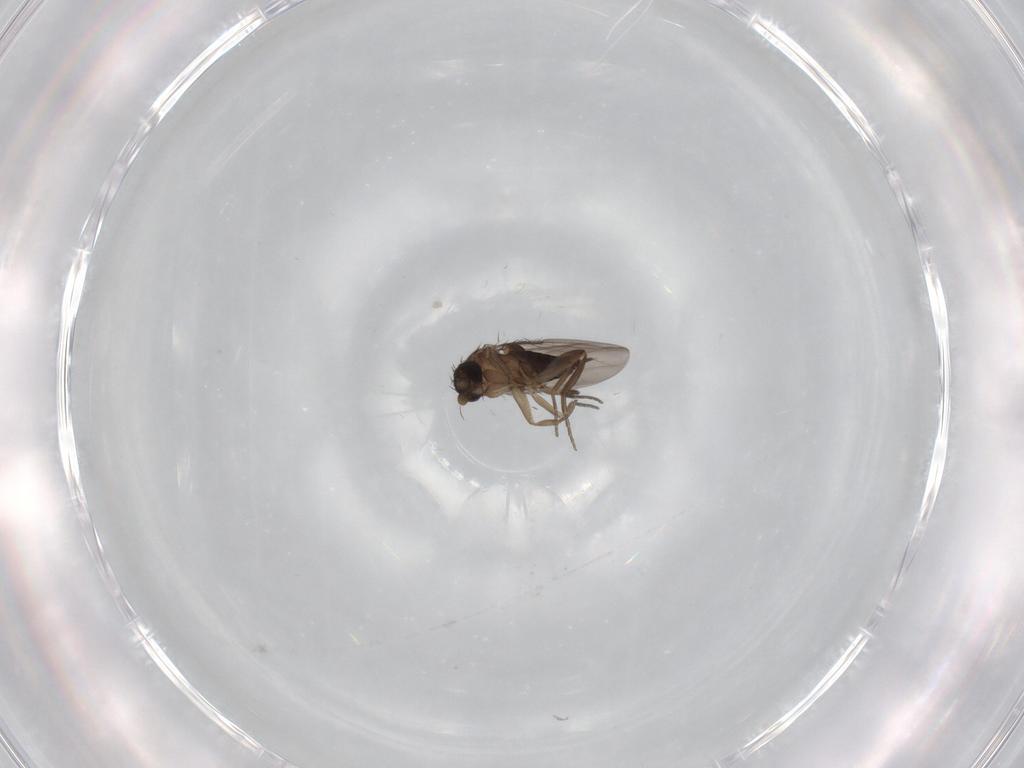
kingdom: Animalia
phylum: Arthropoda
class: Insecta
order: Diptera
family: Phoridae
